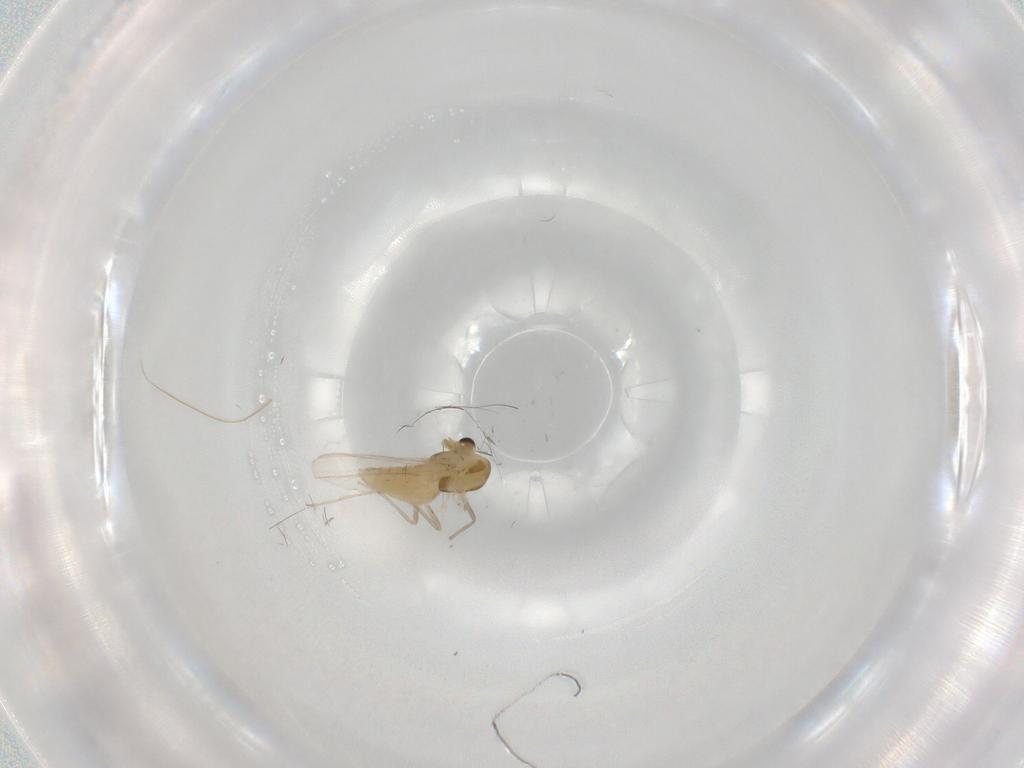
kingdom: Animalia
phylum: Arthropoda
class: Insecta
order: Diptera
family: Chironomidae
